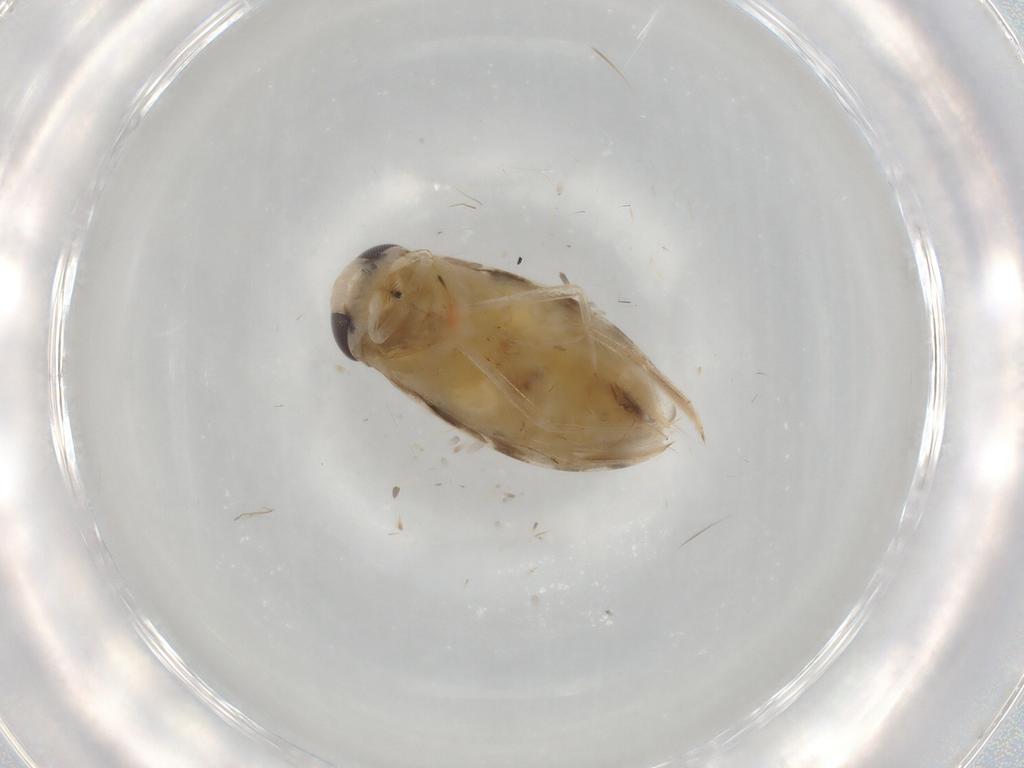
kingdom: Animalia
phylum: Arthropoda
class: Insecta
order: Hemiptera
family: Corixidae
